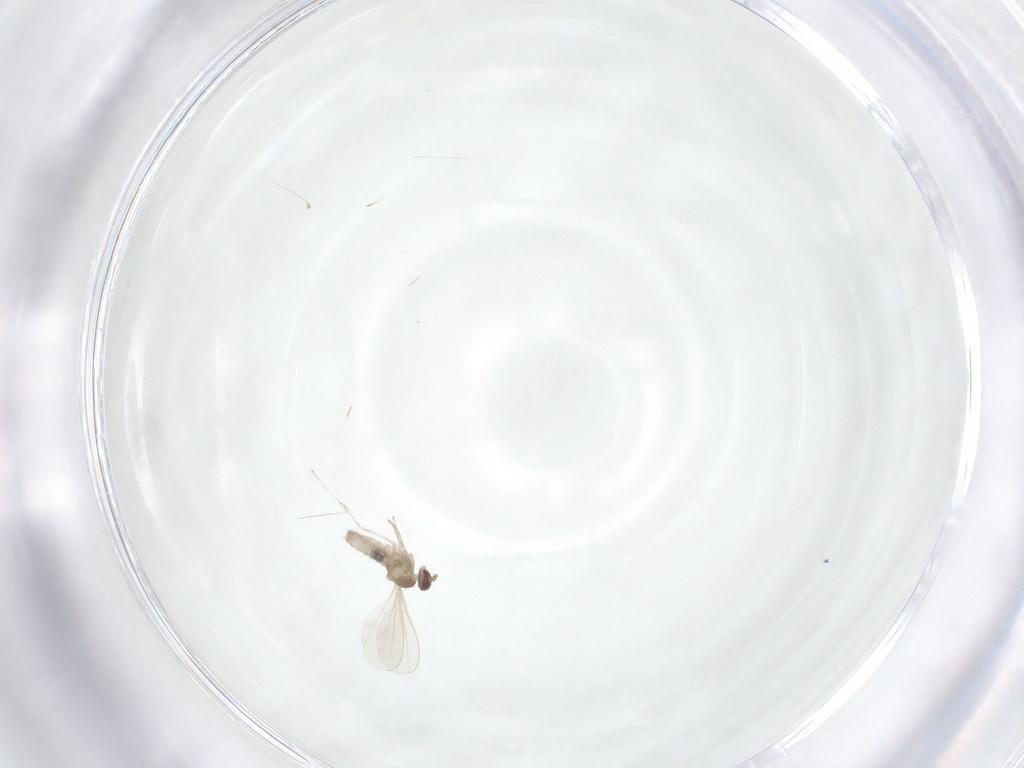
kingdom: Animalia
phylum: Arthropoda
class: Insecta
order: Diptera
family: Cecidomyiidae
